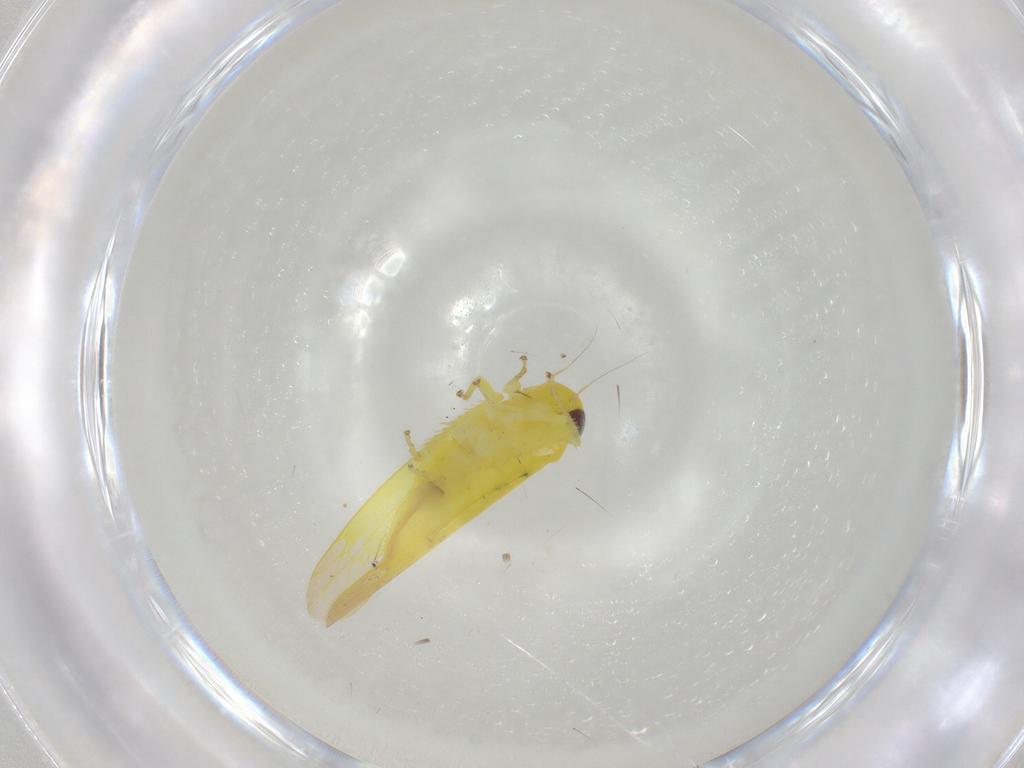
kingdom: Animalia
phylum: Arthropoda
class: Insecta
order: Hemiptera
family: Cicadellidae
